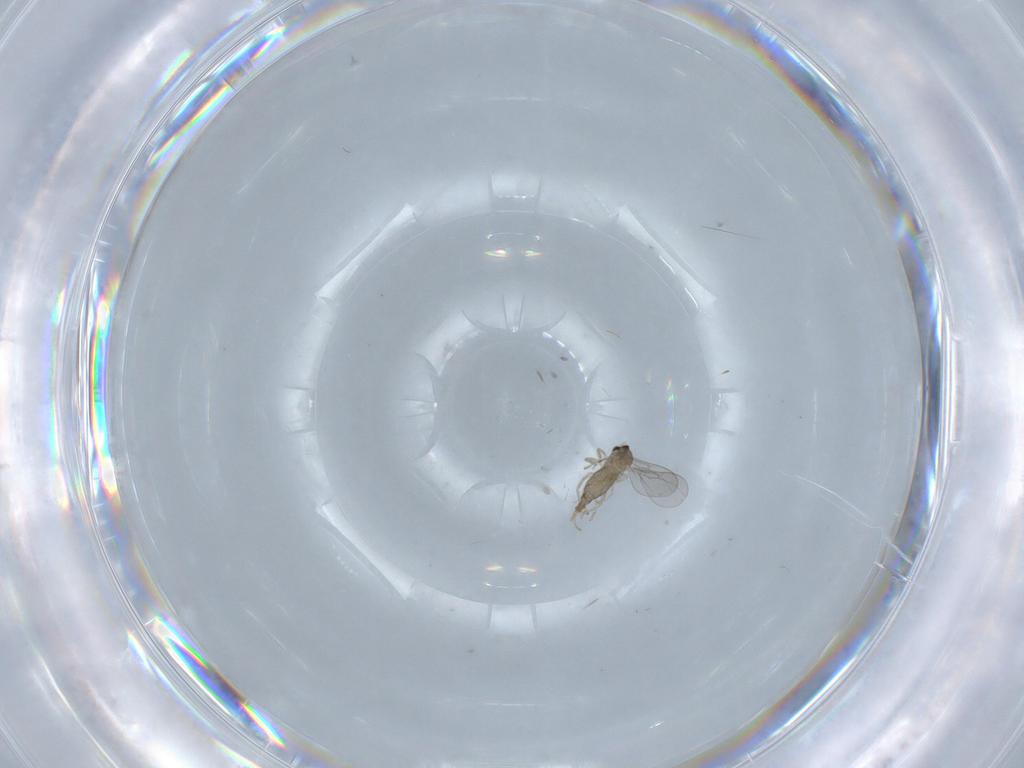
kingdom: Animalia
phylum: Arthropoda
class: Insecta
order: Diptera
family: Cecidomyiidae
